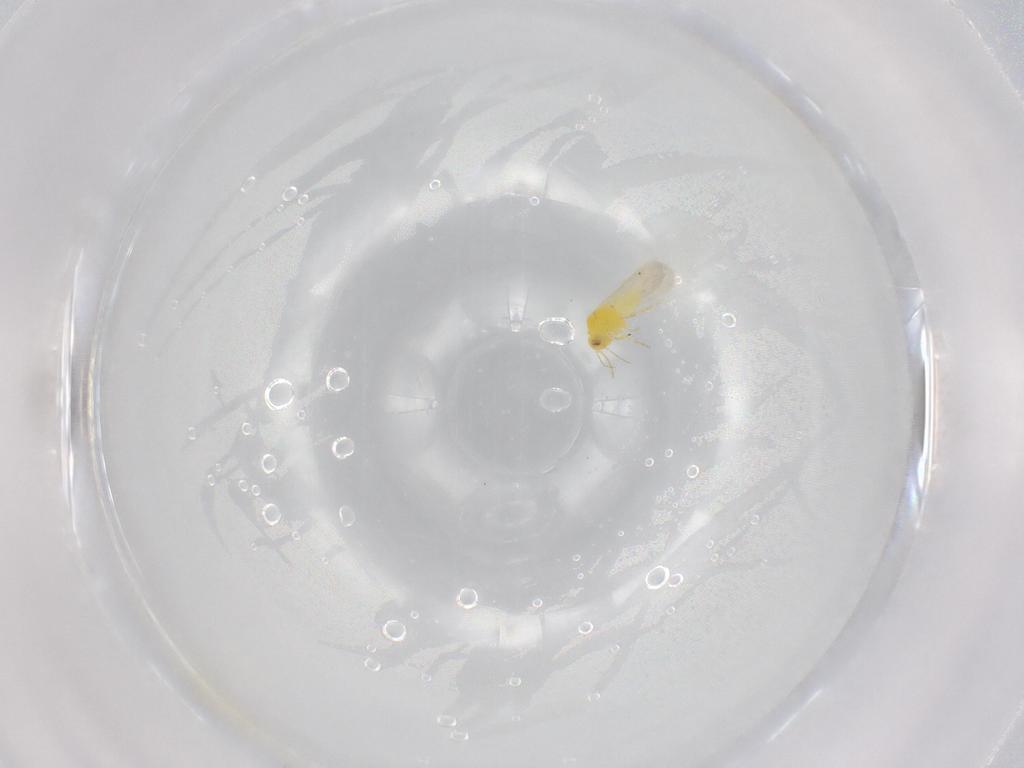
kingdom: Animalia
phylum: Arthropoda
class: Insecta
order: Hemiptera
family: Aleyrodidae
